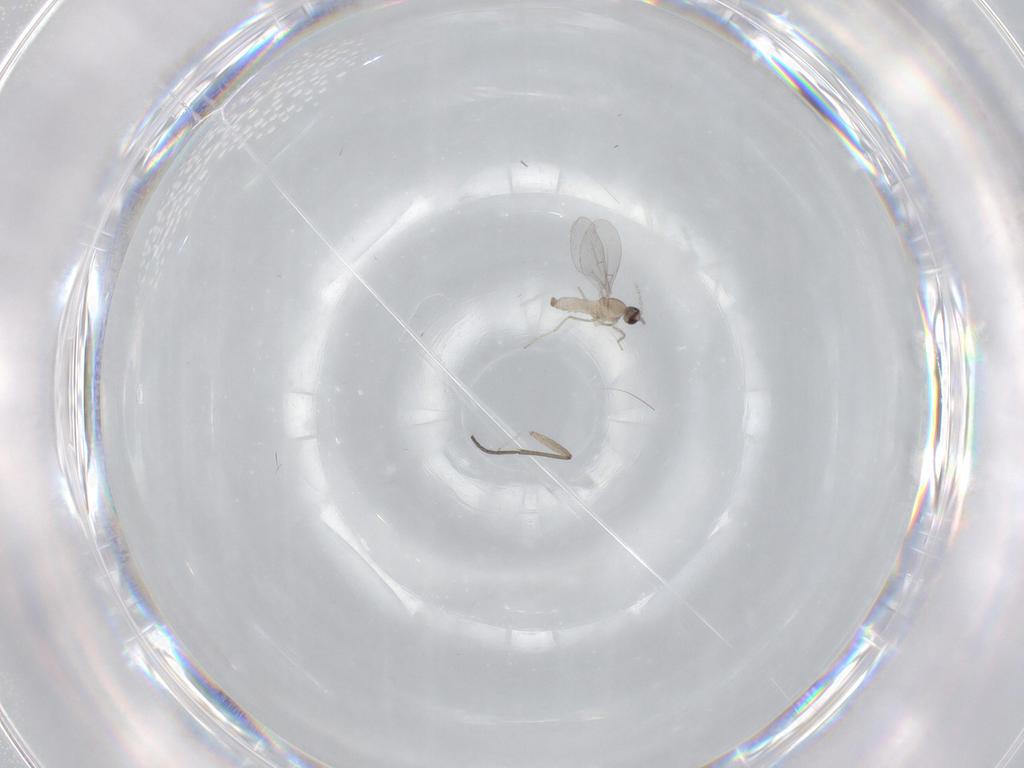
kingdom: Animalia
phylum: Arthropoda
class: Insecta
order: Diptera
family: Cecidomyiidae
